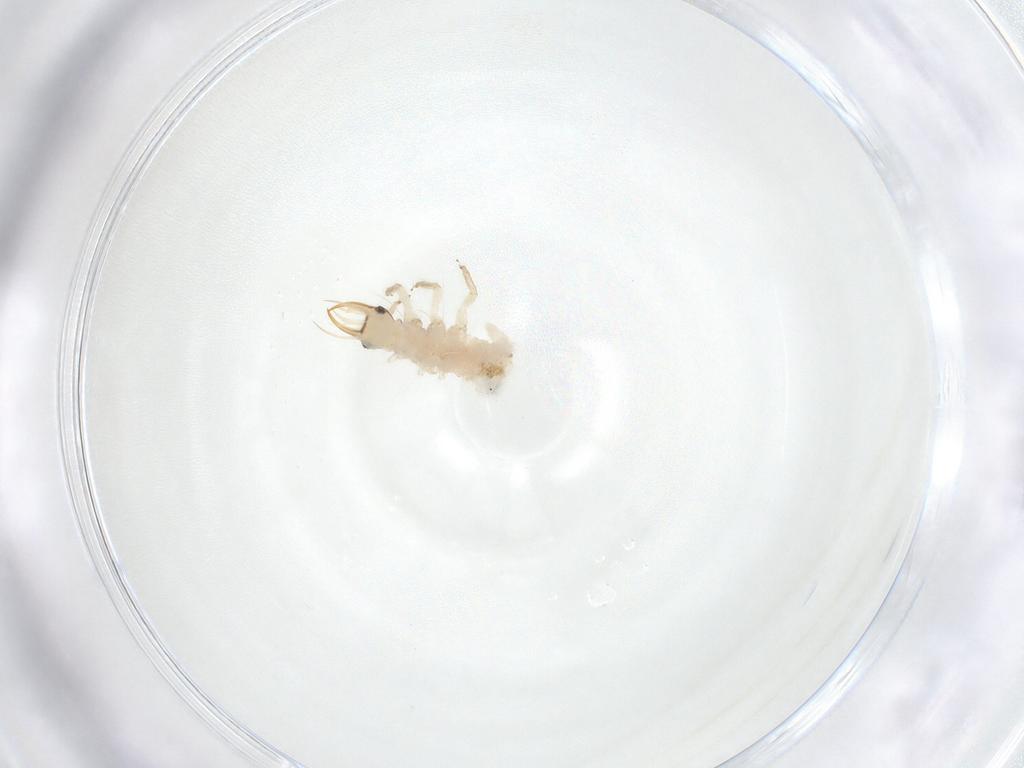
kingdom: Animalia
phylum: Arthropoda
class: Insecta
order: Neuroptera
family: Chrysopidae
